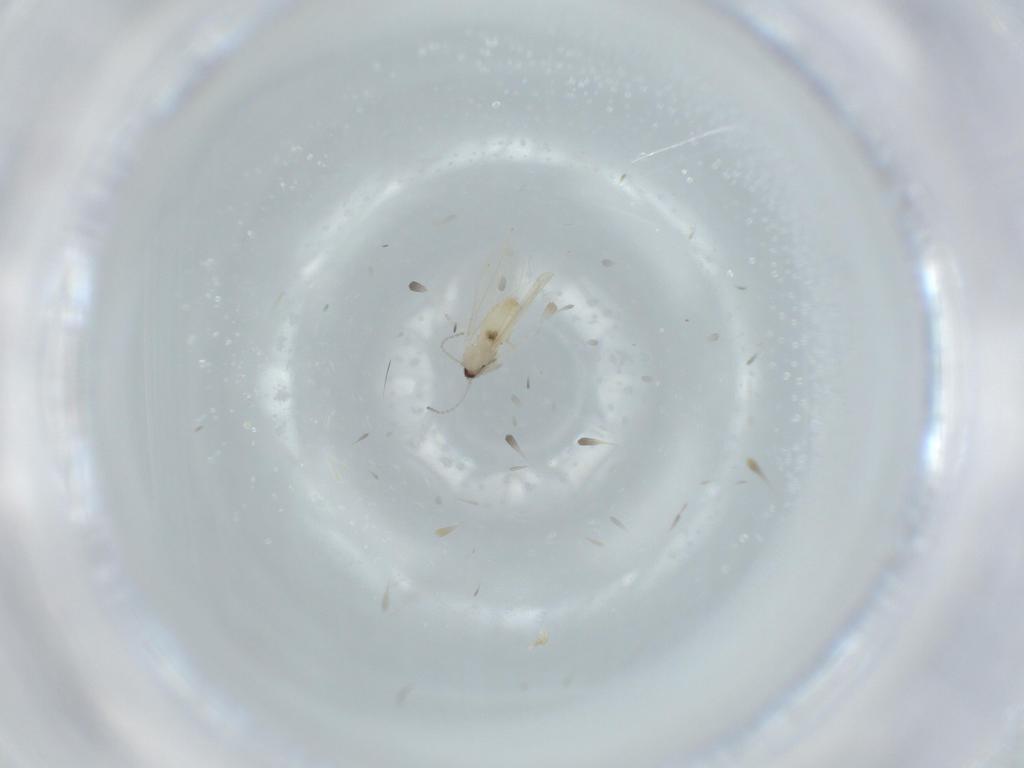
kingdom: Animalia
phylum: Arthropoda
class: Insecta
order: Diptera
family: Cecidomyiidae
